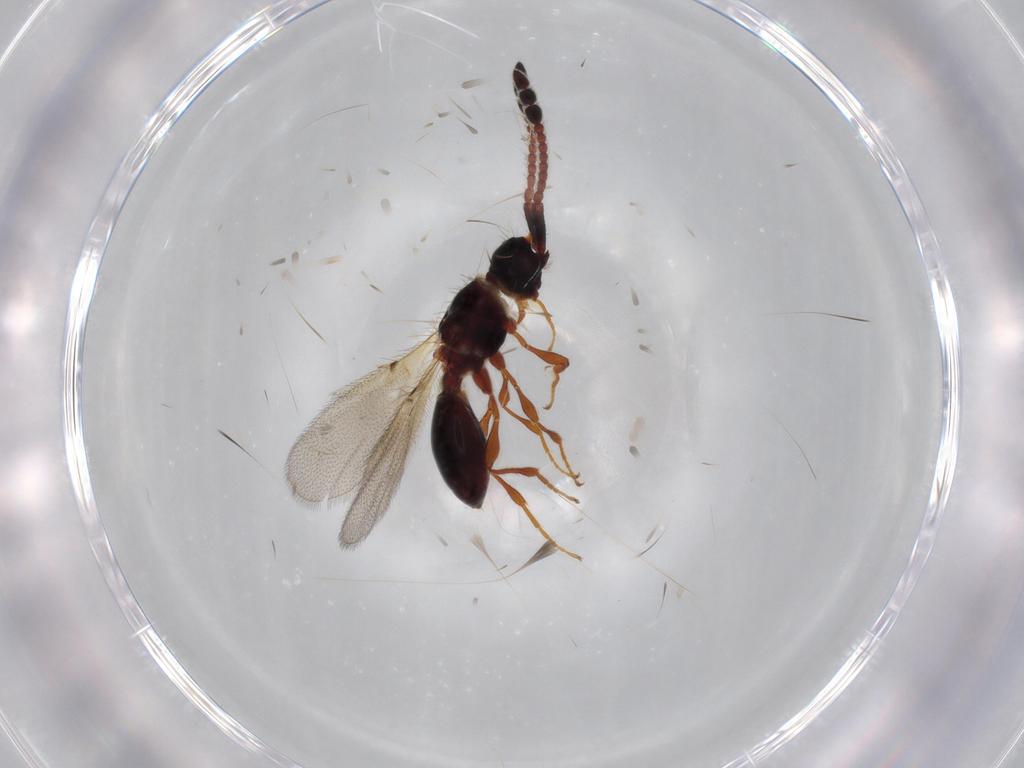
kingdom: Animalia
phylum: Arthropoda
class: Insecta
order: Hymenoptera
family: Diapriidae
